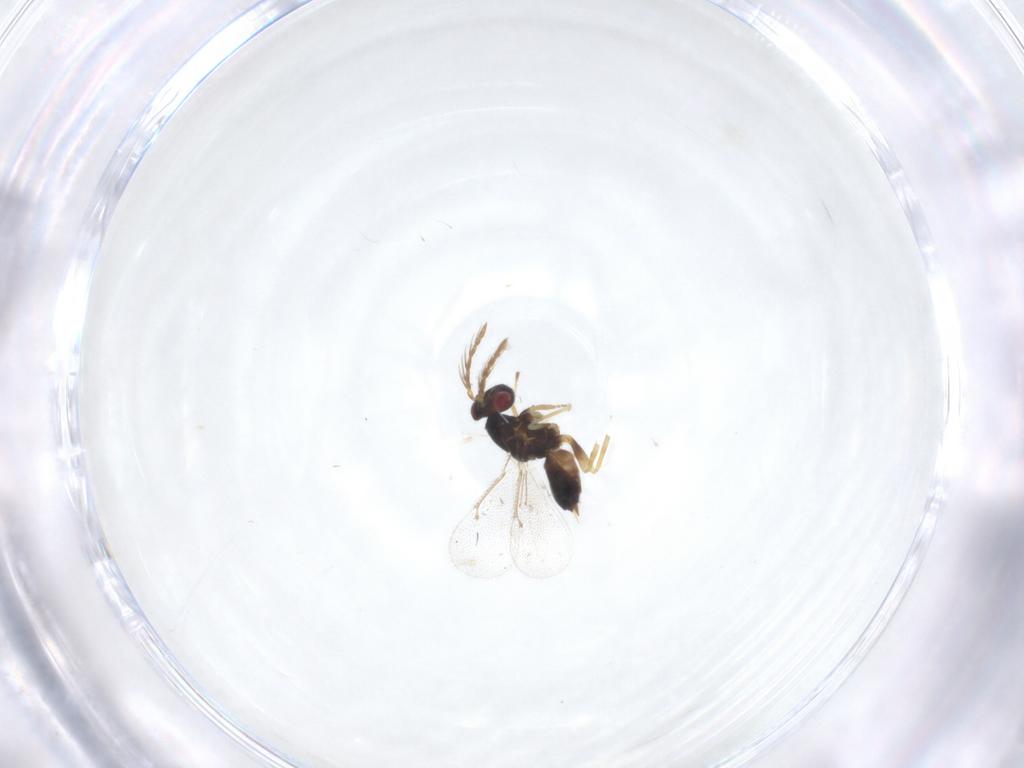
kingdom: Animalia
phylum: Arthropoda
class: Insecta
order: Hymenoptera
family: Eulophidae
